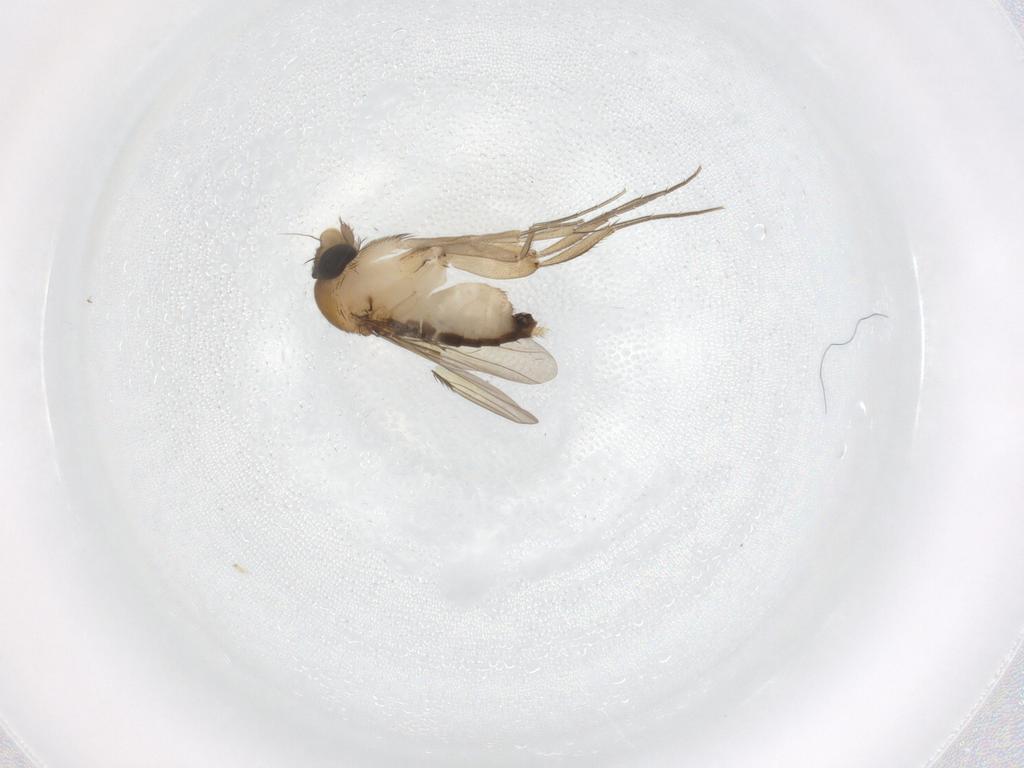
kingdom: Animalia
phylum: Arthropoda
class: Insecta
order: Diptera
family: Phoridae
